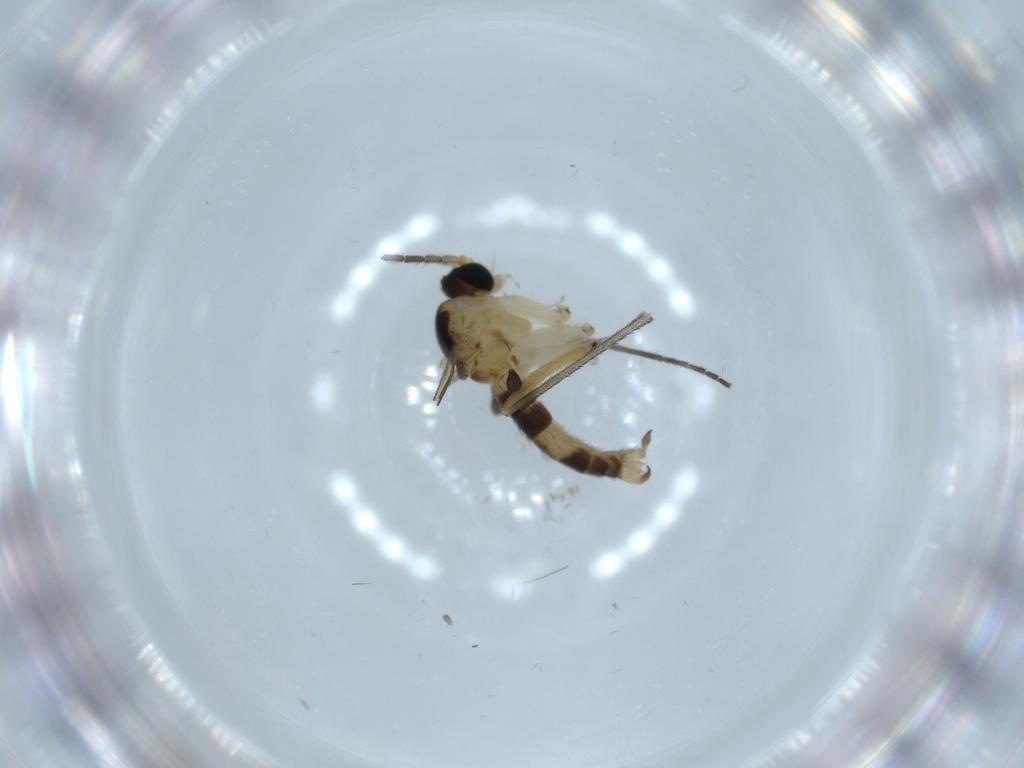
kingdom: Animalia
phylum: Arthropoda
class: Insecta
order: Diptera
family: Sciaridae
